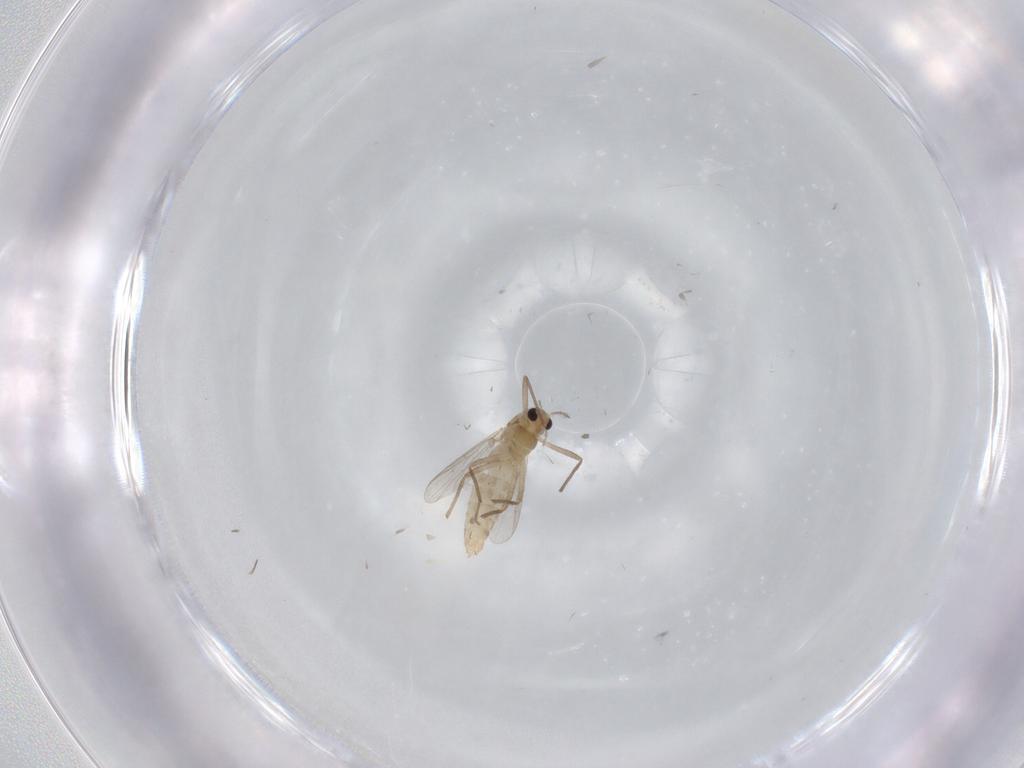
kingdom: Animalia
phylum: Arthropoda
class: Insecta
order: Diptera
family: Chironomidae
